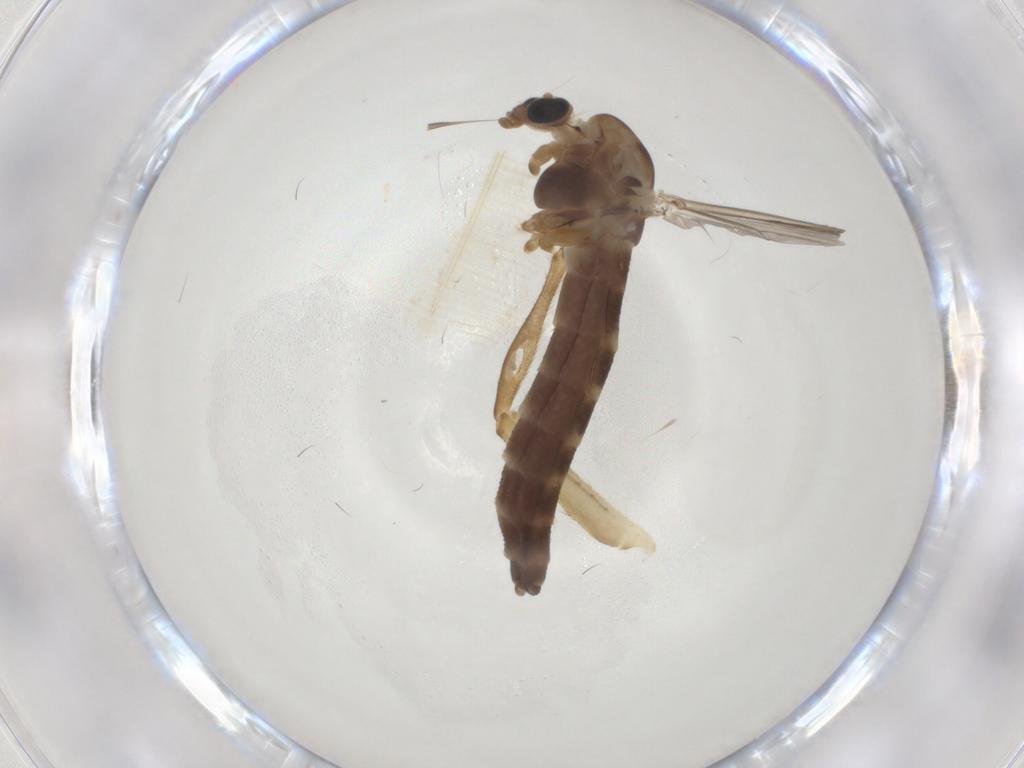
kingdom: Animalia
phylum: Arthropoda
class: Insecta
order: Diptera
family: Chironomidae
